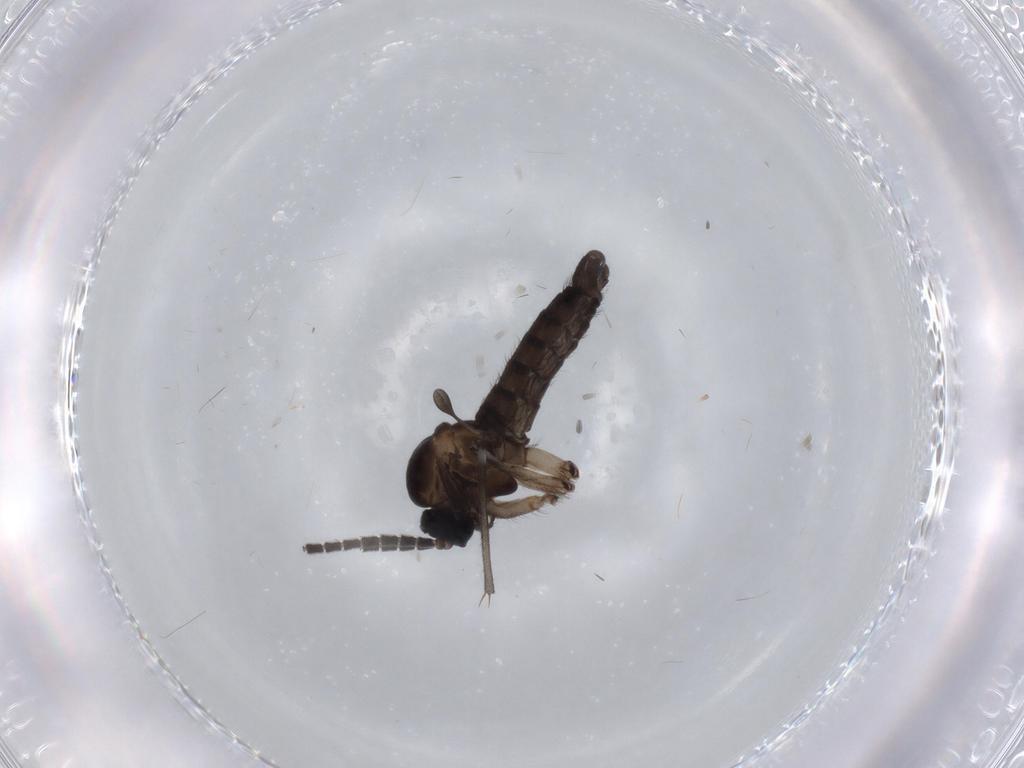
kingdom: Animalia
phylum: Arthropoda
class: Insecta
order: Diptera
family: Sciaridae
